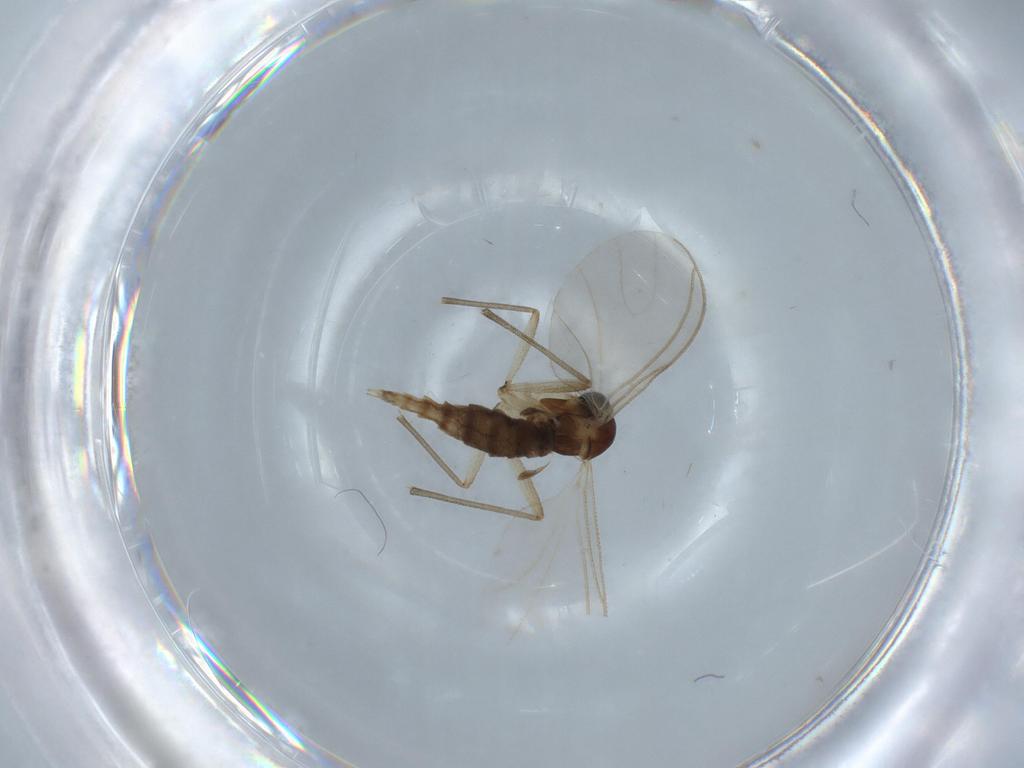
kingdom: Animalia
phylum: Arthropoda
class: Insecta
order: Diptera
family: Sciaridae
